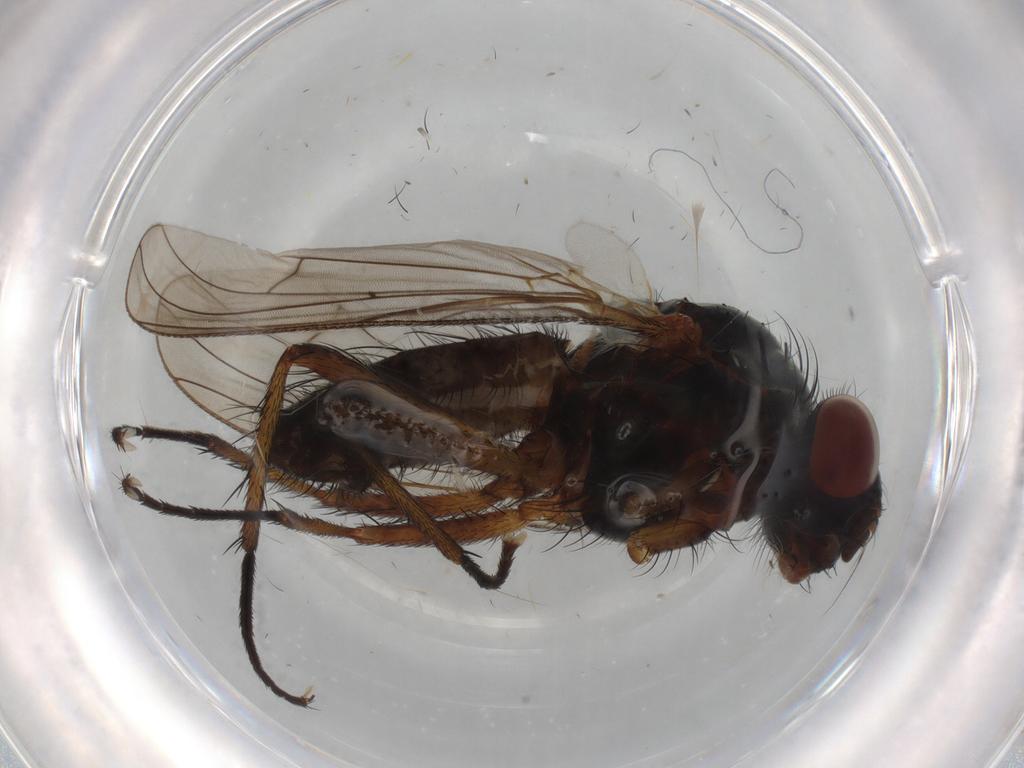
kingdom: Animalia
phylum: Arthropoda
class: Insecta
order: Diptera
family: Anthomyiidae
